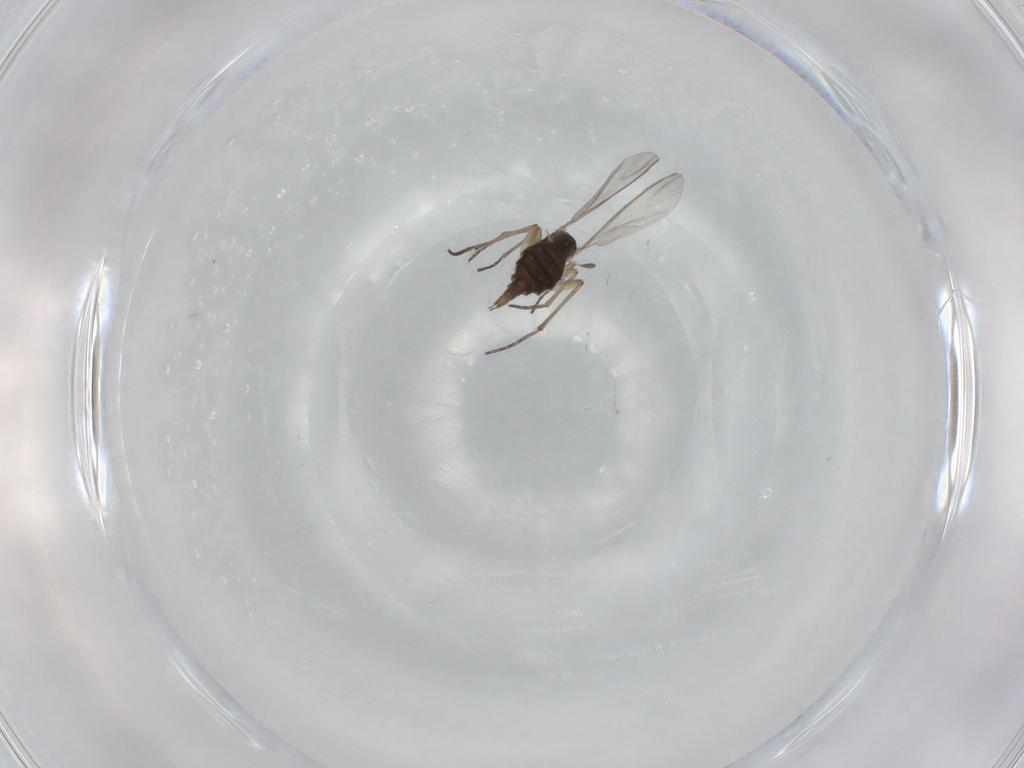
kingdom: Animalia
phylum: Arthropoda
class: Insecta
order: Diptera
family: Sciaridae
